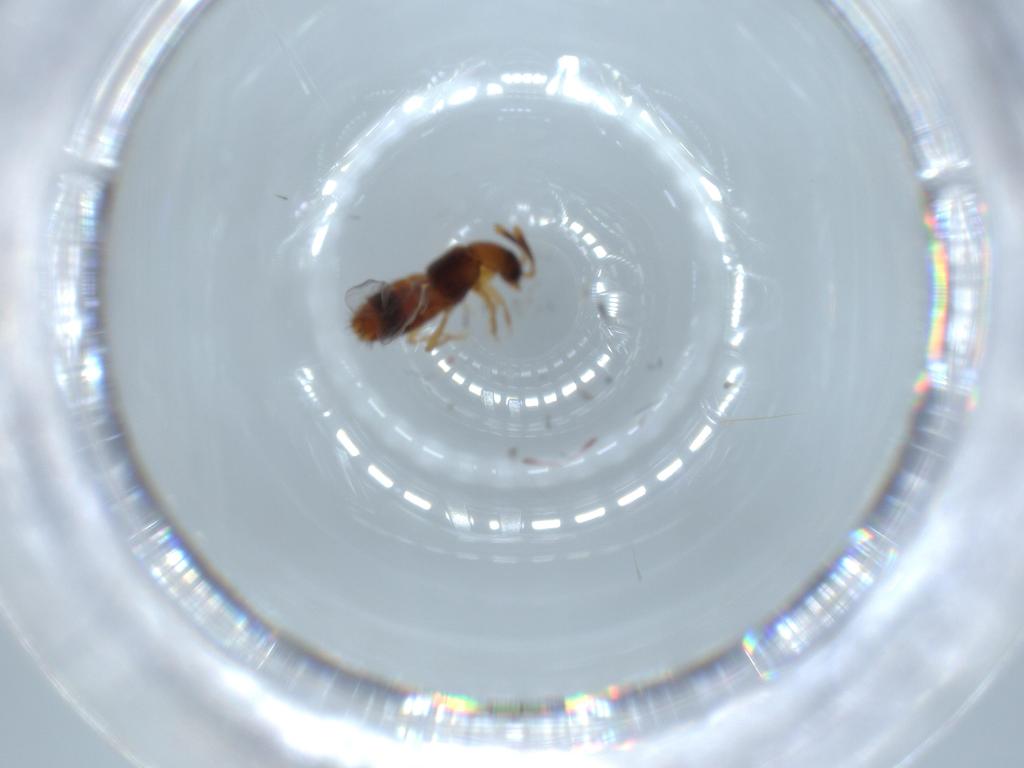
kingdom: Animalia
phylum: Arthropoda
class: Insecta
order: Coleoptera
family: Staphylinidae
